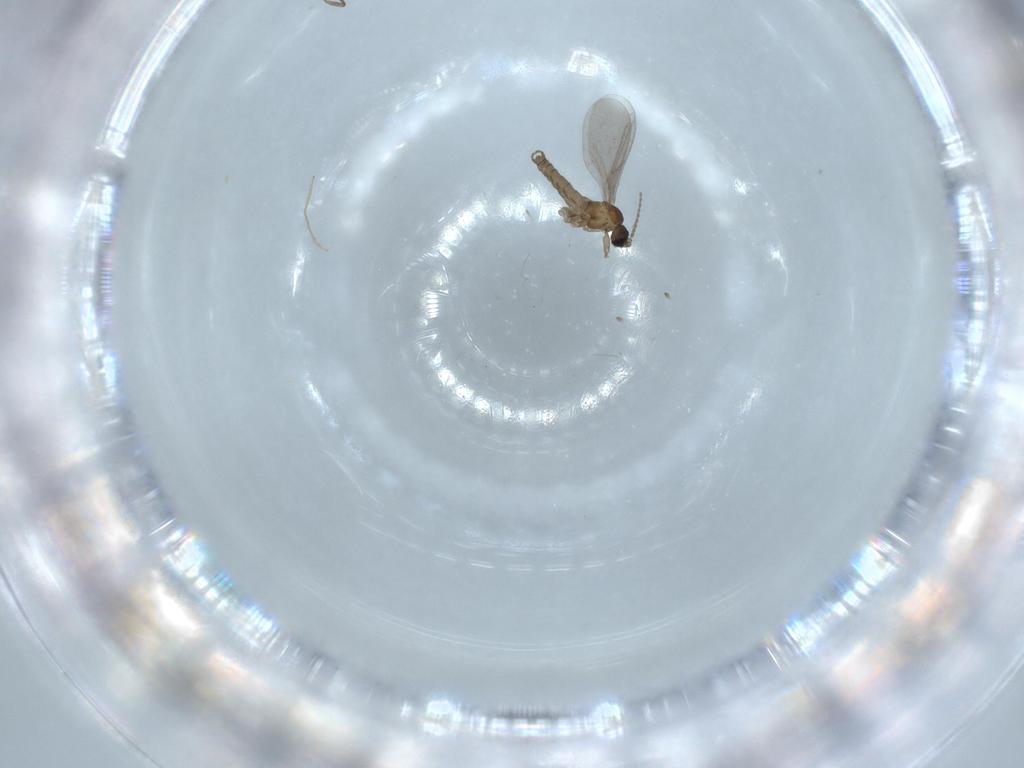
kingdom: Animalia
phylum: Arthropoda
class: Insecta
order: Diptera
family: Sciaridae
